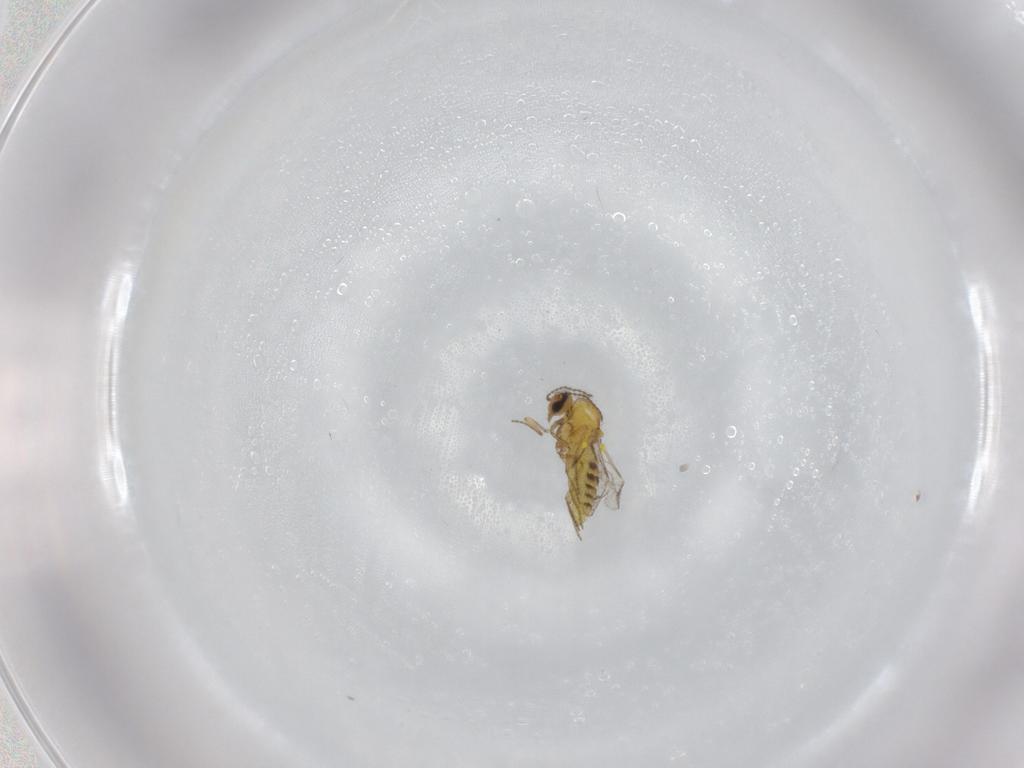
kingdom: Animalia
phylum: Arthropoda
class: Insecta
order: Diptera
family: Ceratopogonidae
